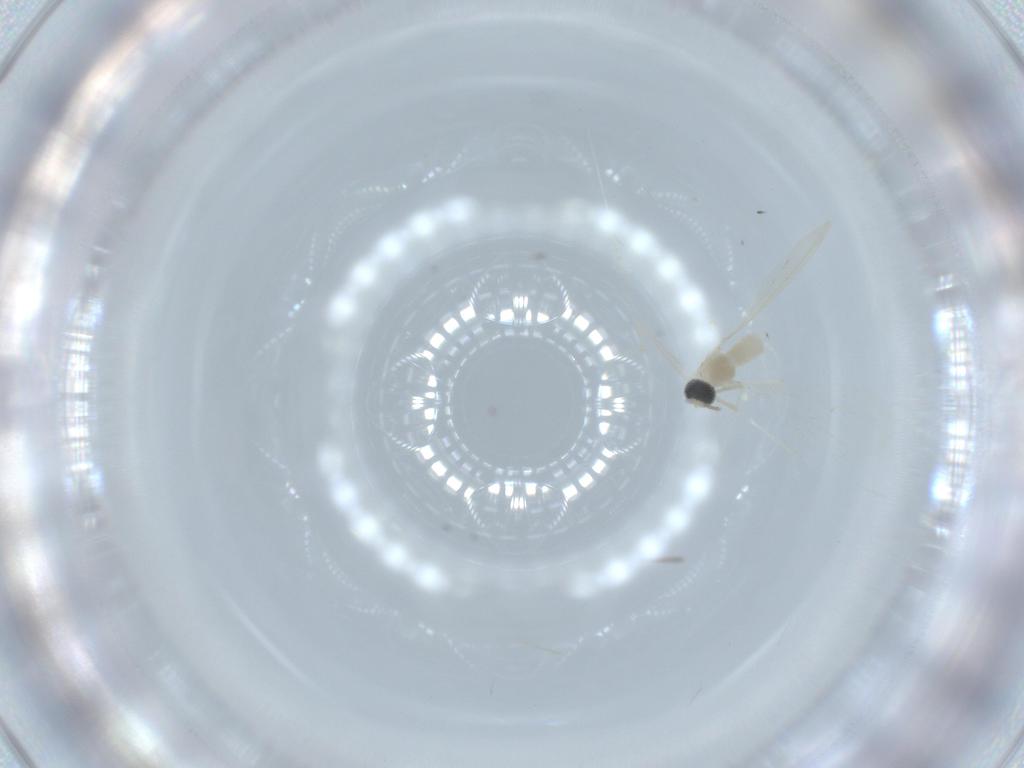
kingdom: Animalia
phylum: Arthropoda
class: Insecta
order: Diptera
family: Cecidomyiidae
